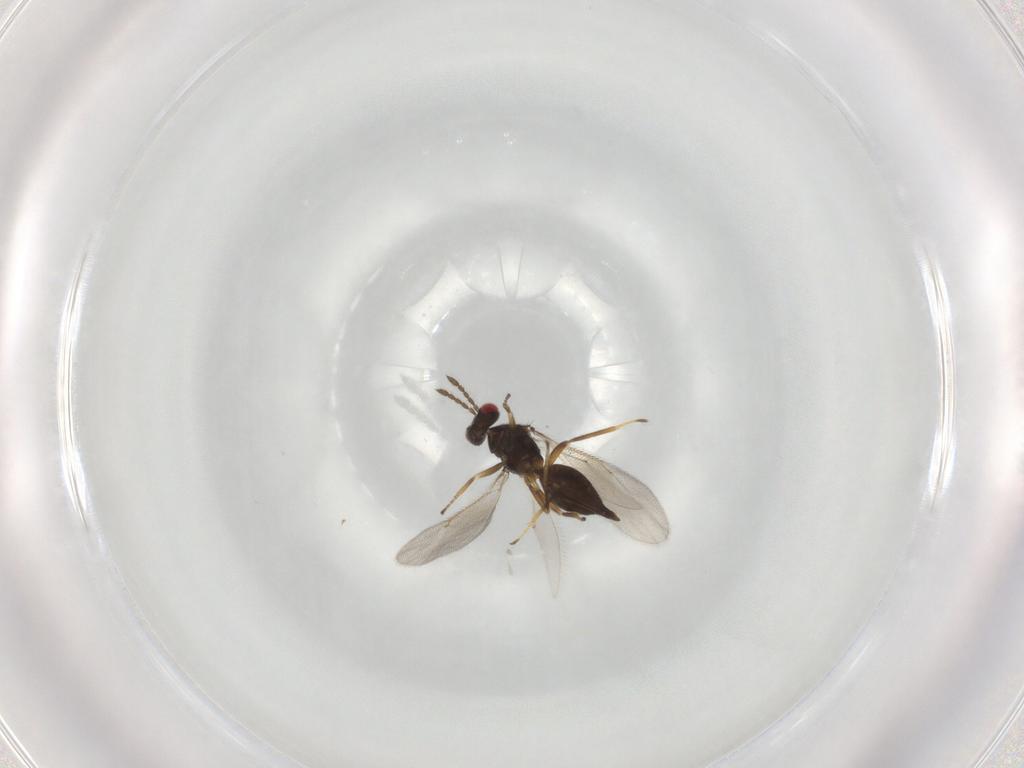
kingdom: Animalia
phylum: Arthropoda
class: Insecta
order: Hymenoptera
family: Eulophidae
